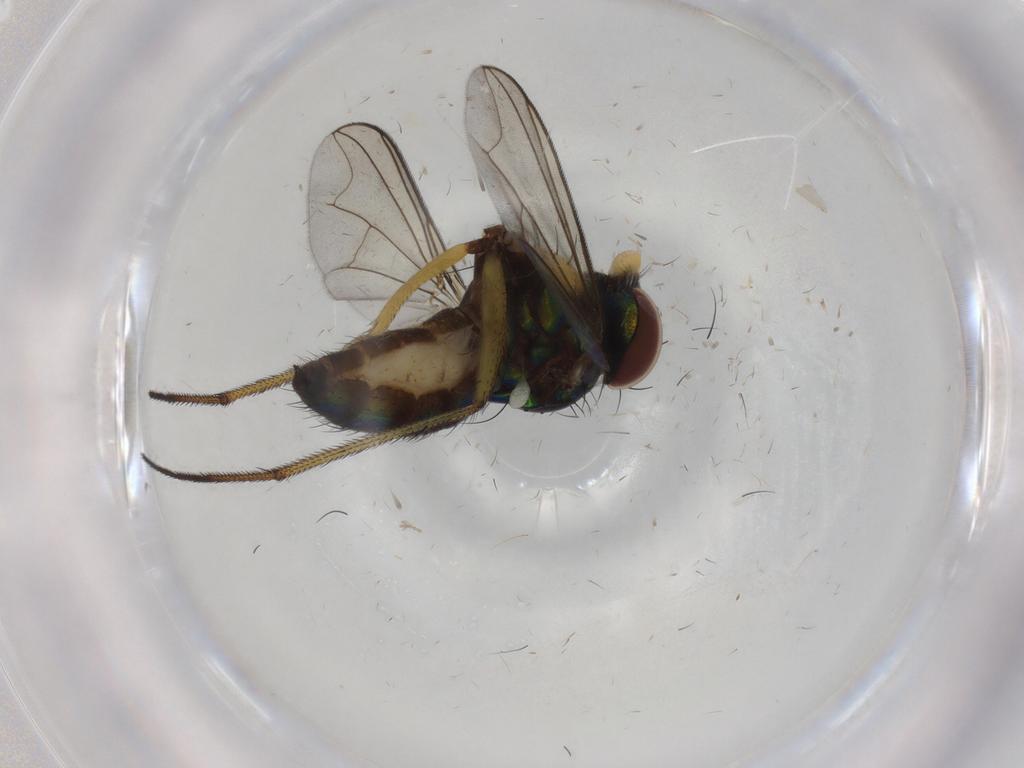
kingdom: Animalia
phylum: Arthropoda
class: Insecta
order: Diptera
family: Dolichopodidae
